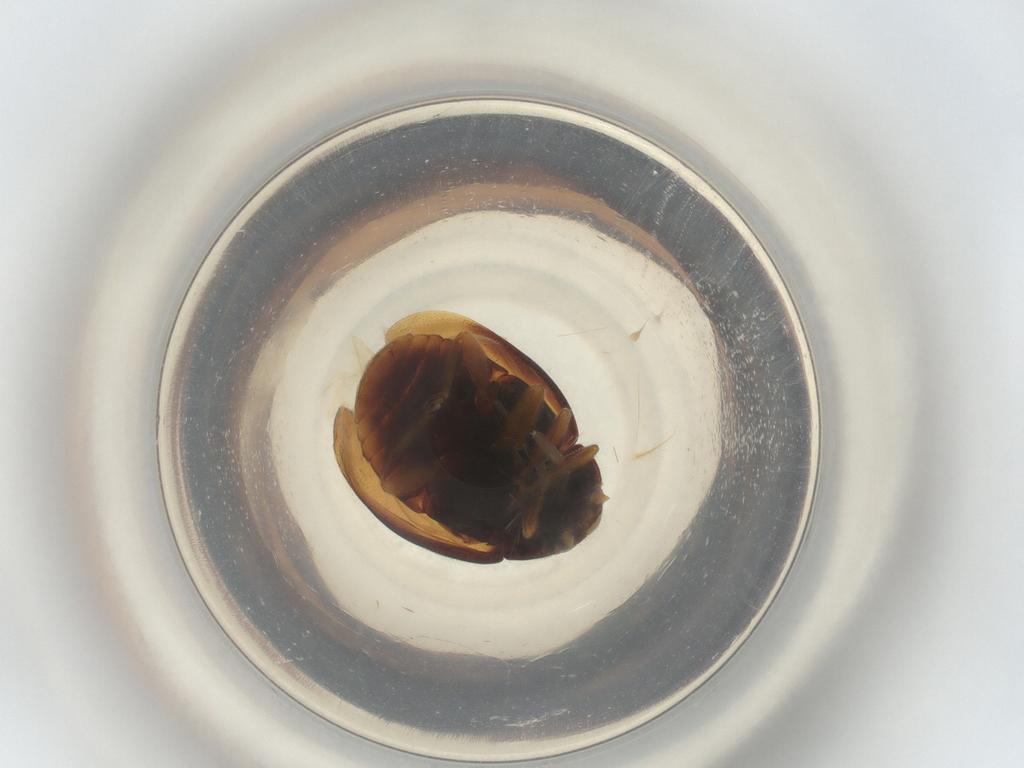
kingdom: Animalia
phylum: Arthropoda
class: Insecta
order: Coleoptera
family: Coccinellidae
